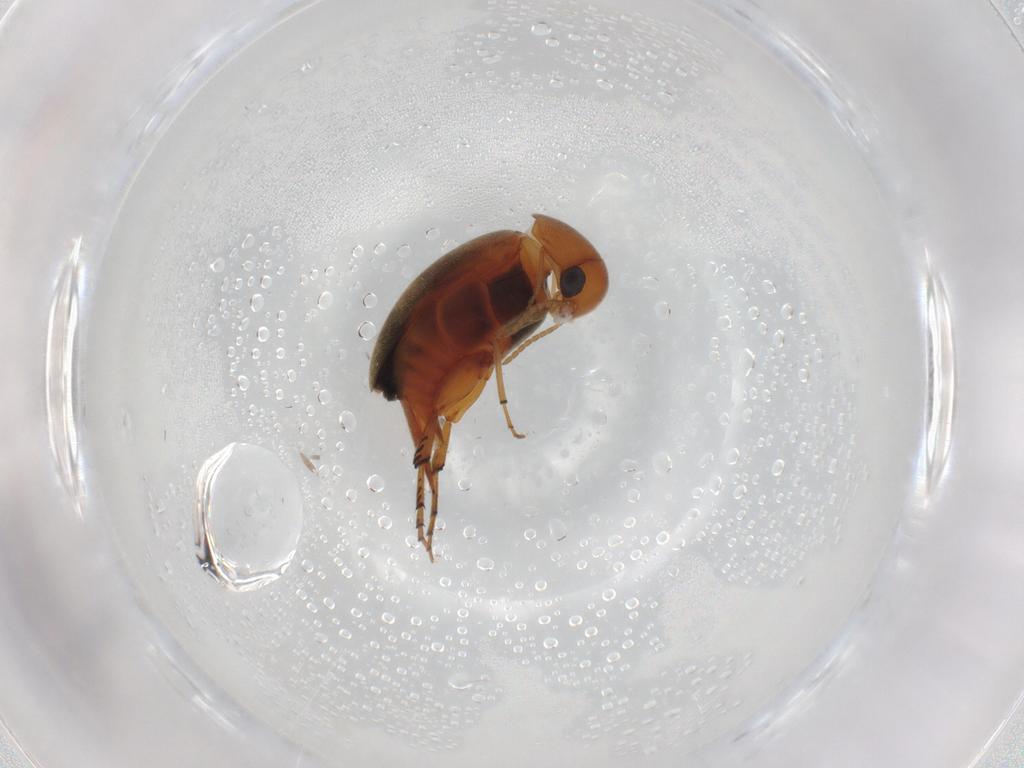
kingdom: Animalia
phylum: Arthropoda
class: Insecta
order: Coleoptera
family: Mordellidae
